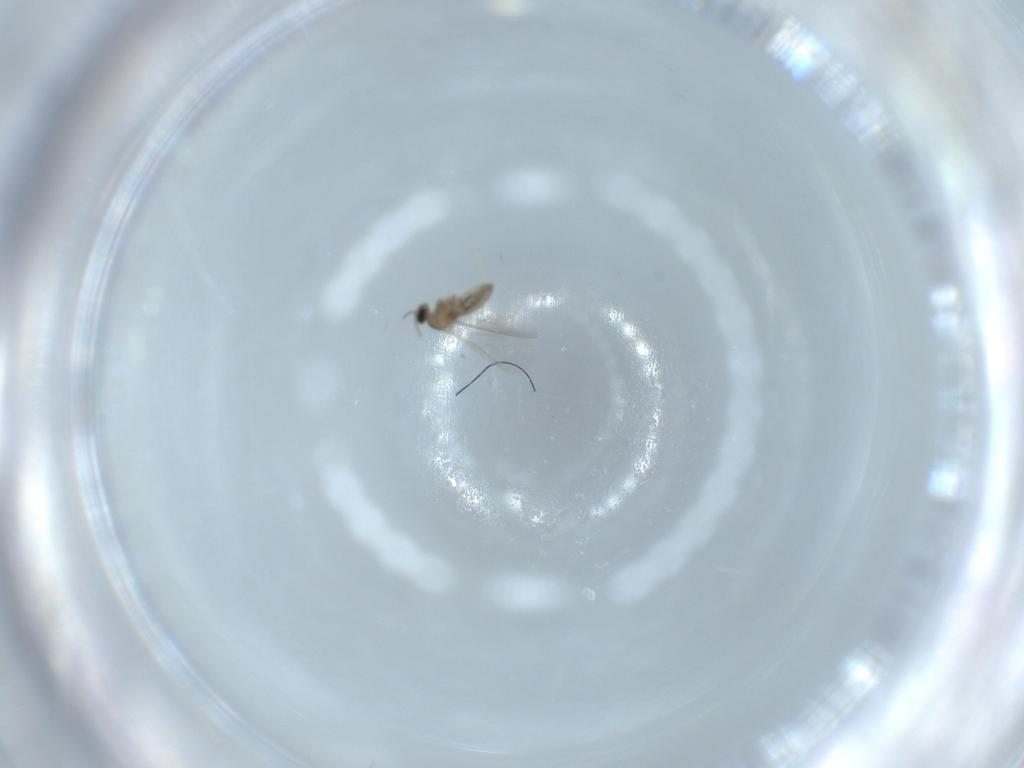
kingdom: Animalia
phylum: Arthropoda
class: Insecta
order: Diptera
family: Cecidomyiidae
